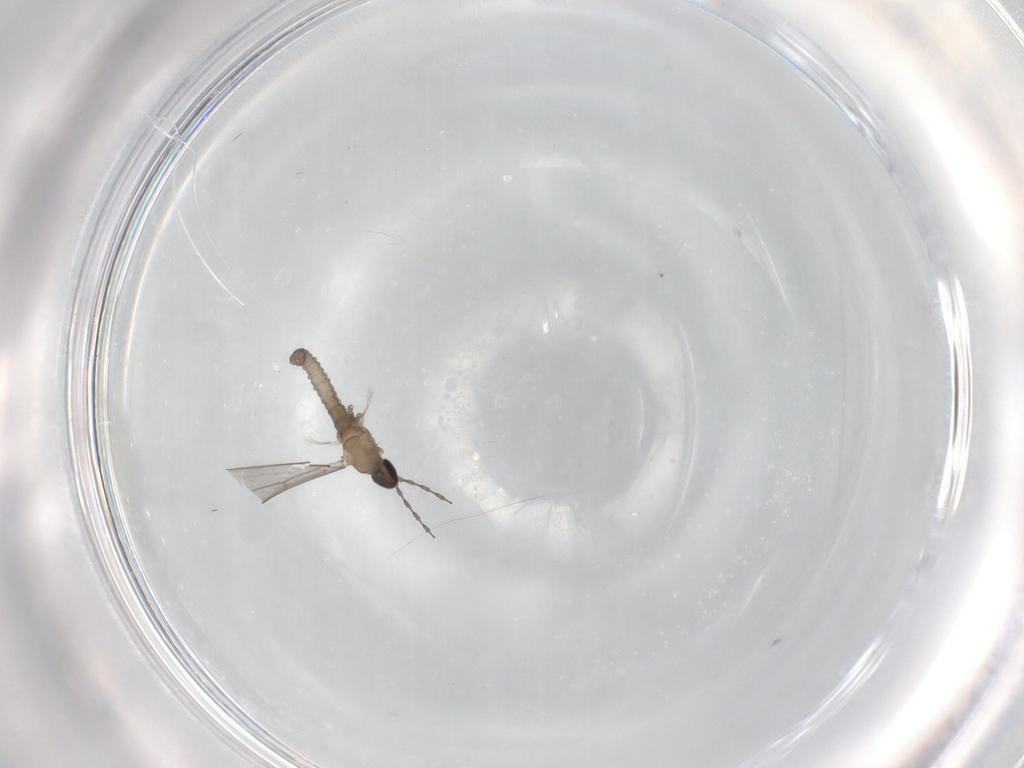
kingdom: Animalia
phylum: Arthropoda
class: Insecta
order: Diptera
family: Cecidomyiidae
